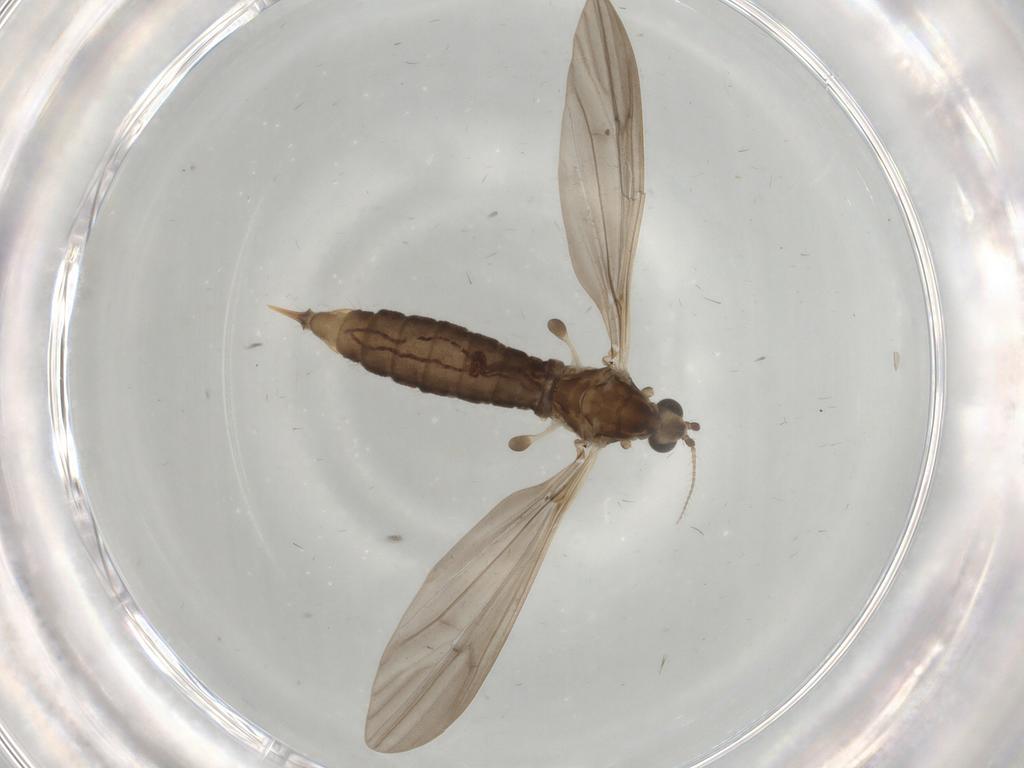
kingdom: Animalia
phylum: Arthropoda
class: Insecta
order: Diptera
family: Limoniidae
